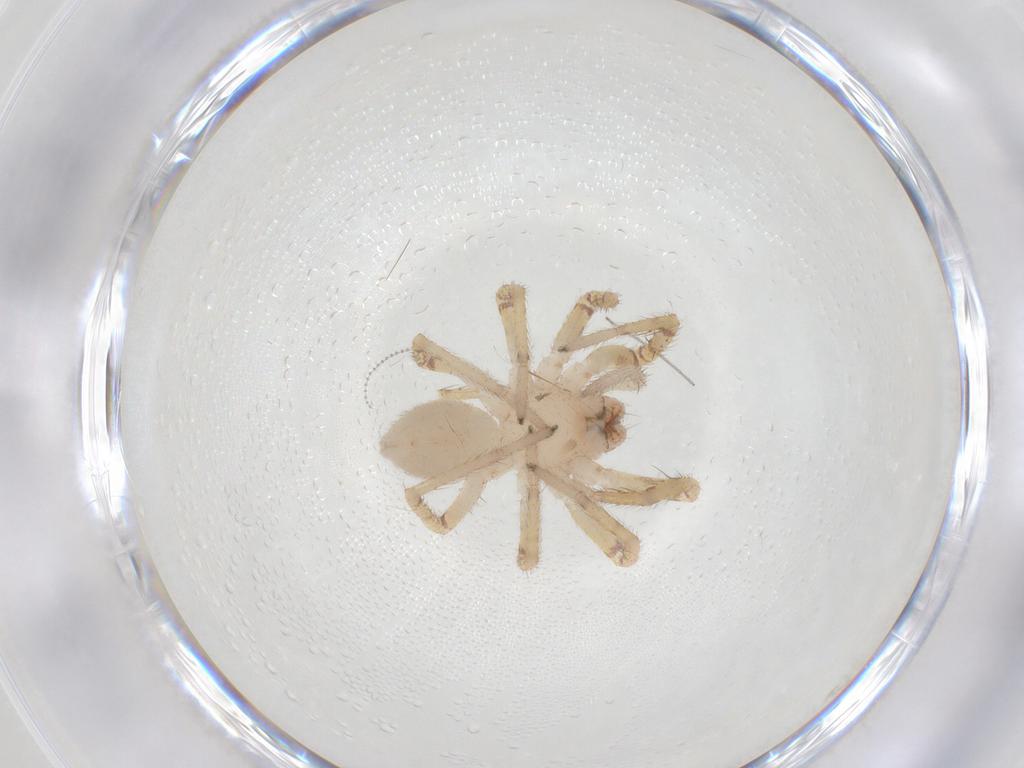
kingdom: Animalia
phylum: Arthropoda
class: Arachnida
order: Araneae
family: Corinnidae
